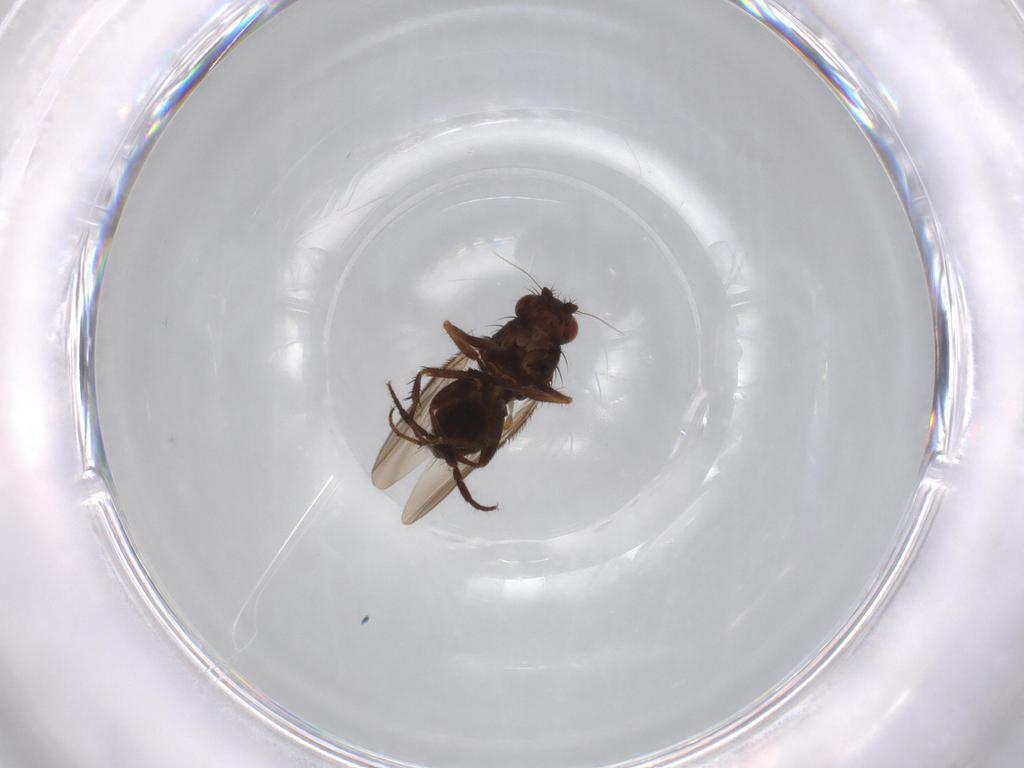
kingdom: Animalia
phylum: Arthropoda
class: Insecta
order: Diptera
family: Sphaeroceridae
